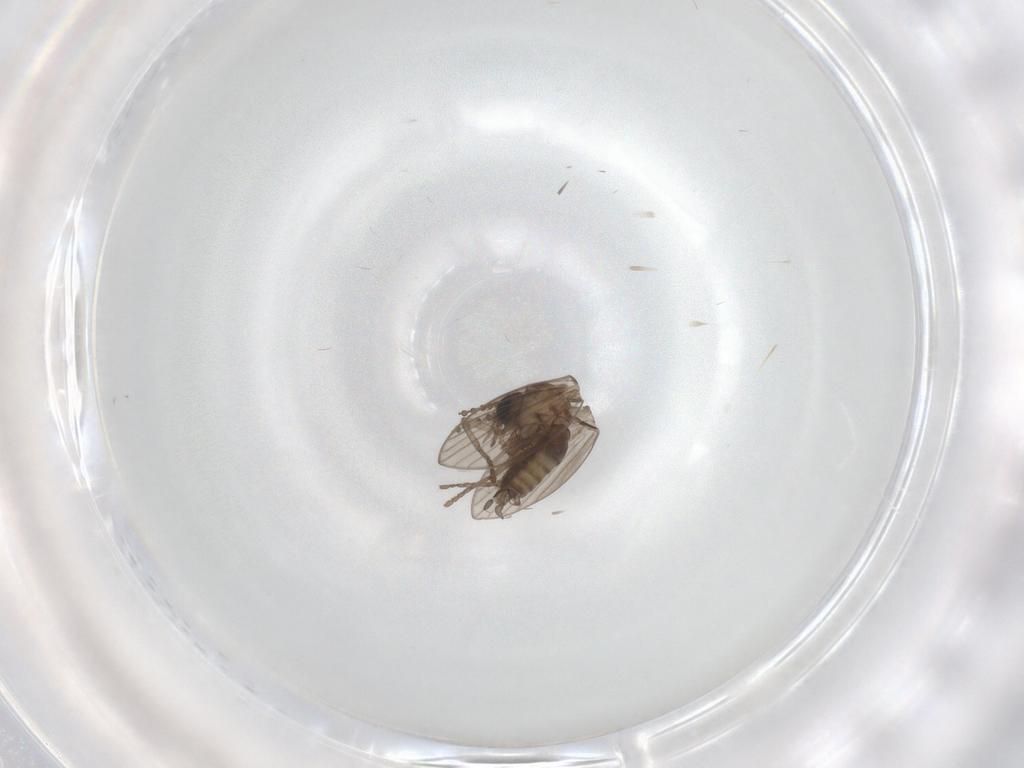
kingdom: Animalia
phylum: Arthropoda
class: Insecta
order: Diptera
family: Psychodidae
